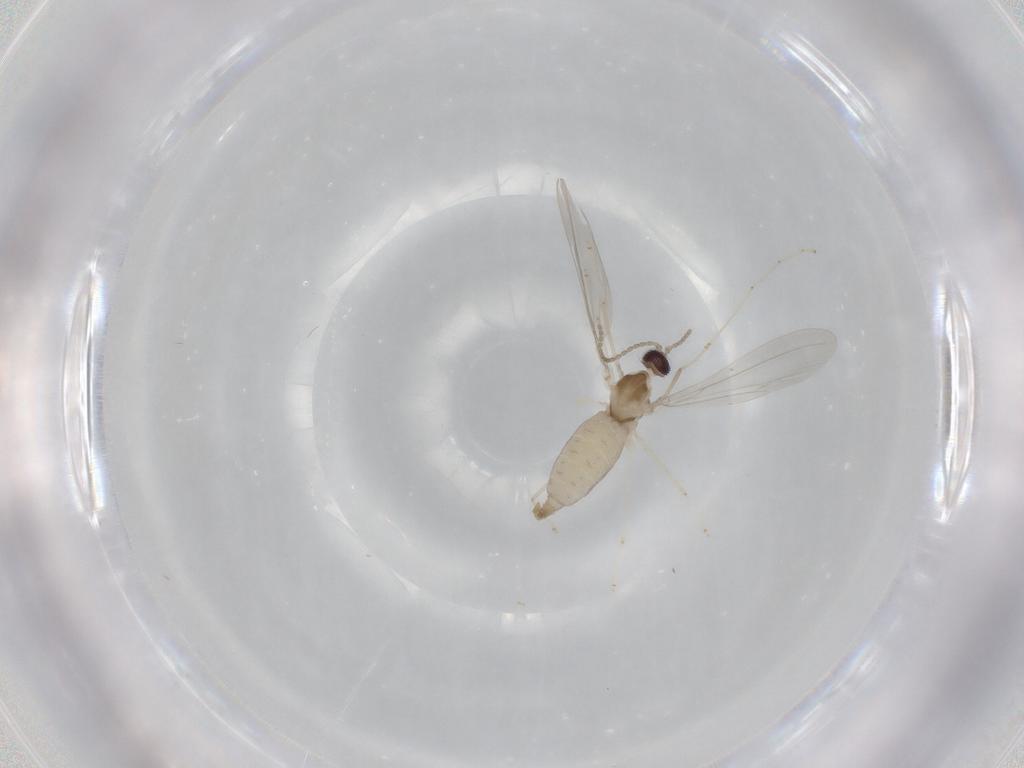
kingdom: Animalia
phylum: Arthropoda
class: Insecta
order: Diptera
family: Cecidomyiidae
